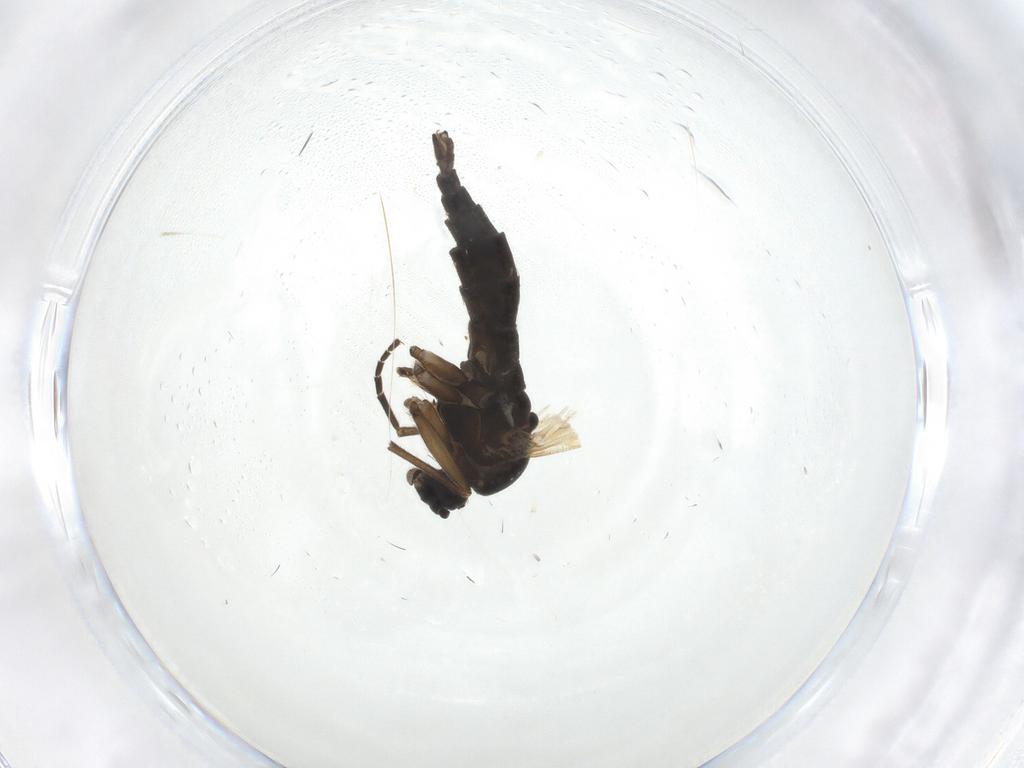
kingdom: Animalia
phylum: Arthropoda
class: Insecta
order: Diptera
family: Sciaridae
